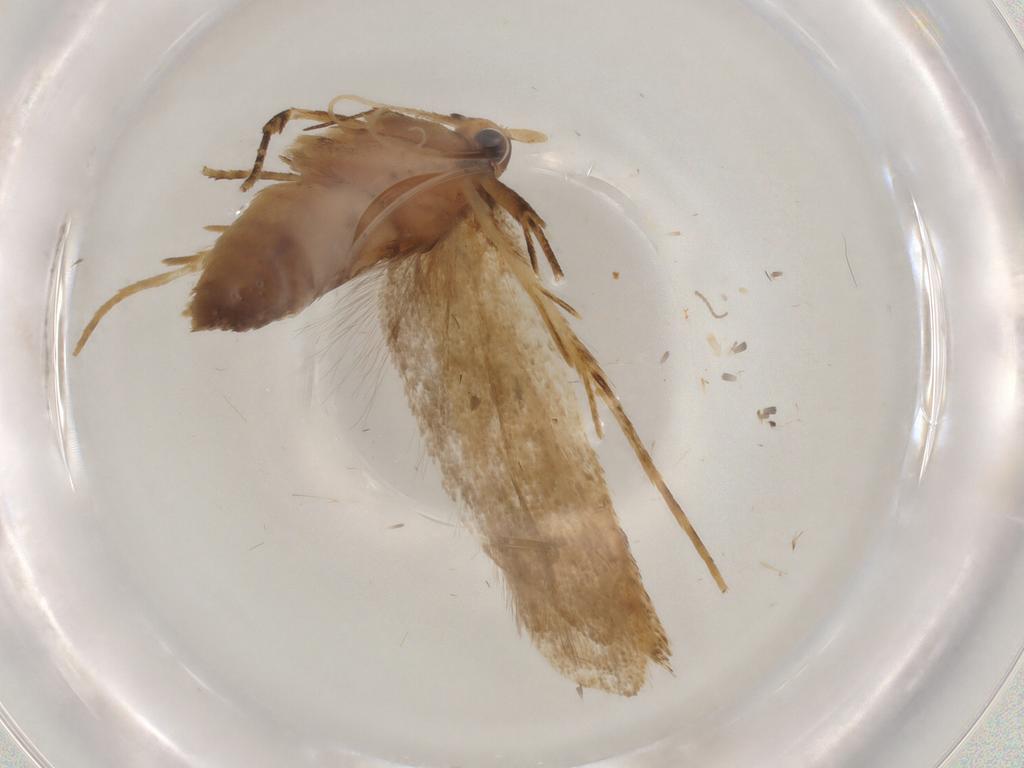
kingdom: Animalia
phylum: Arthropoda
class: Insecta
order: Lepidoptera
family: Lecithoceridae
